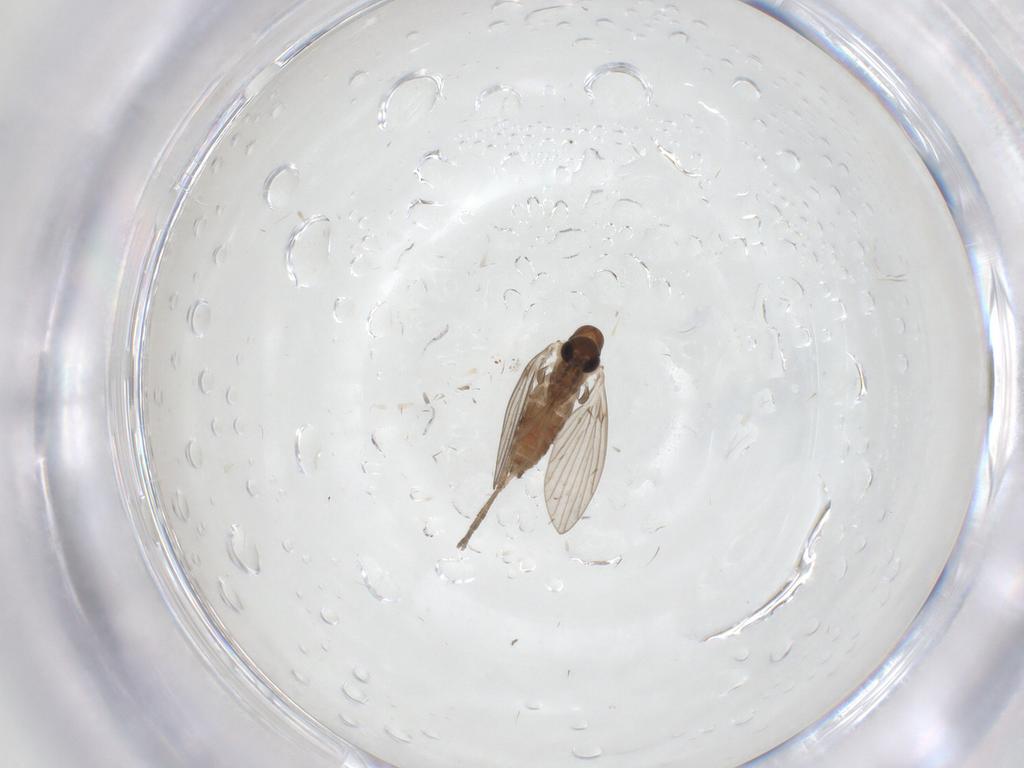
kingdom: Animalia
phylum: Arthropoda
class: Insecta
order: Diptera
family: Chironomidae
